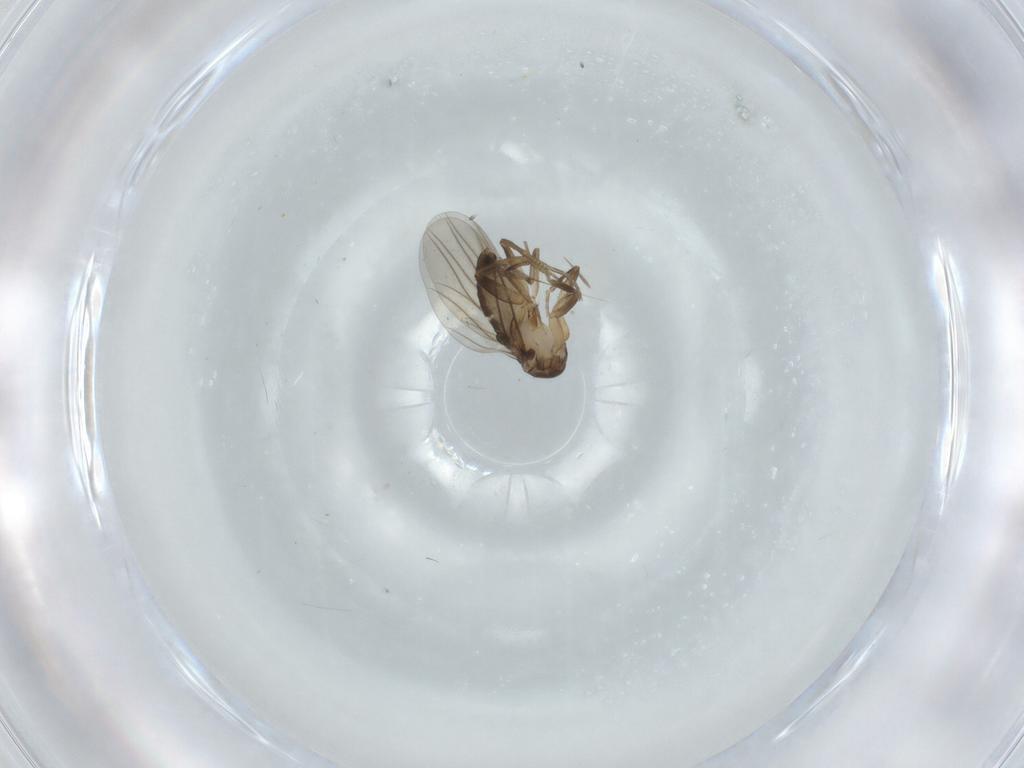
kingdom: Animalia
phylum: Arthropoda
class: Insecta
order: Diptera
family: Phoridae
